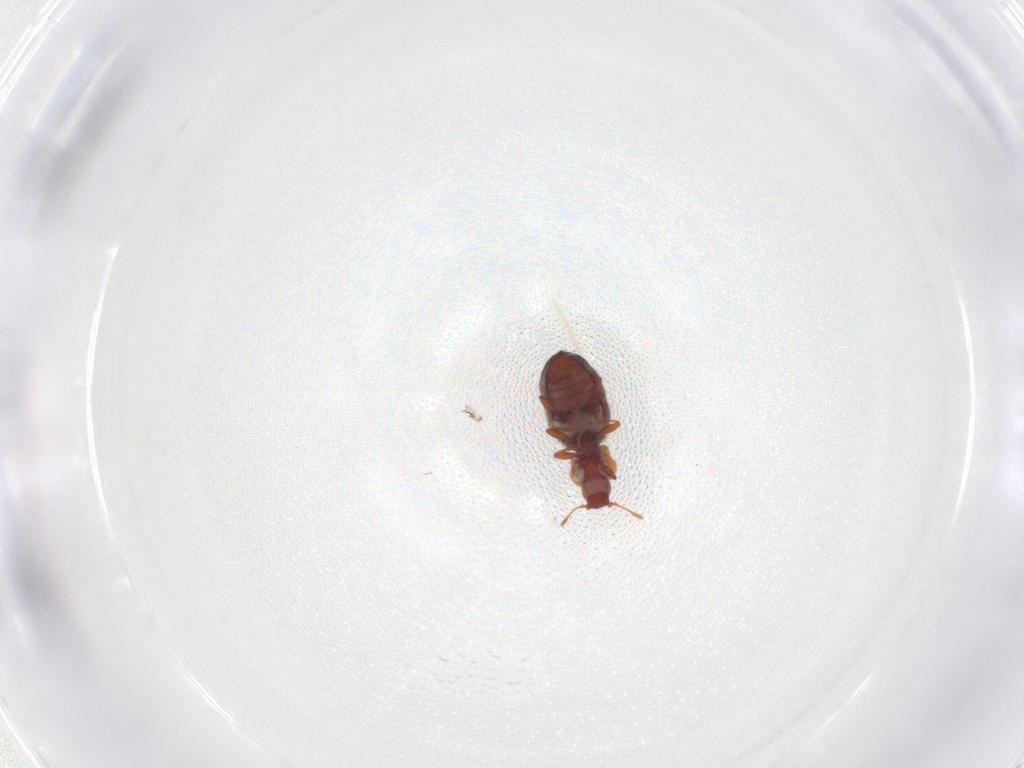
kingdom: Animalia
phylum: Arthropoda
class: Insecta
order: Coleoptera
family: Latridiidae
